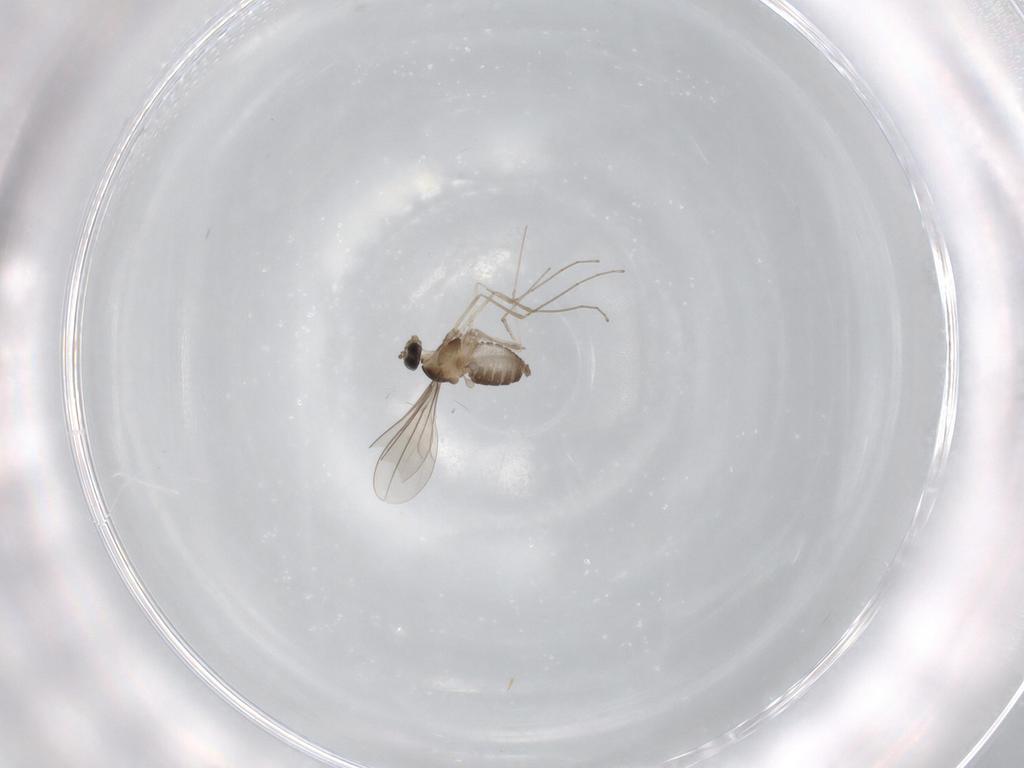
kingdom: Animalia
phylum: Arthropoda
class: Insecta
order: Diptera
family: Cecidomyiidae
